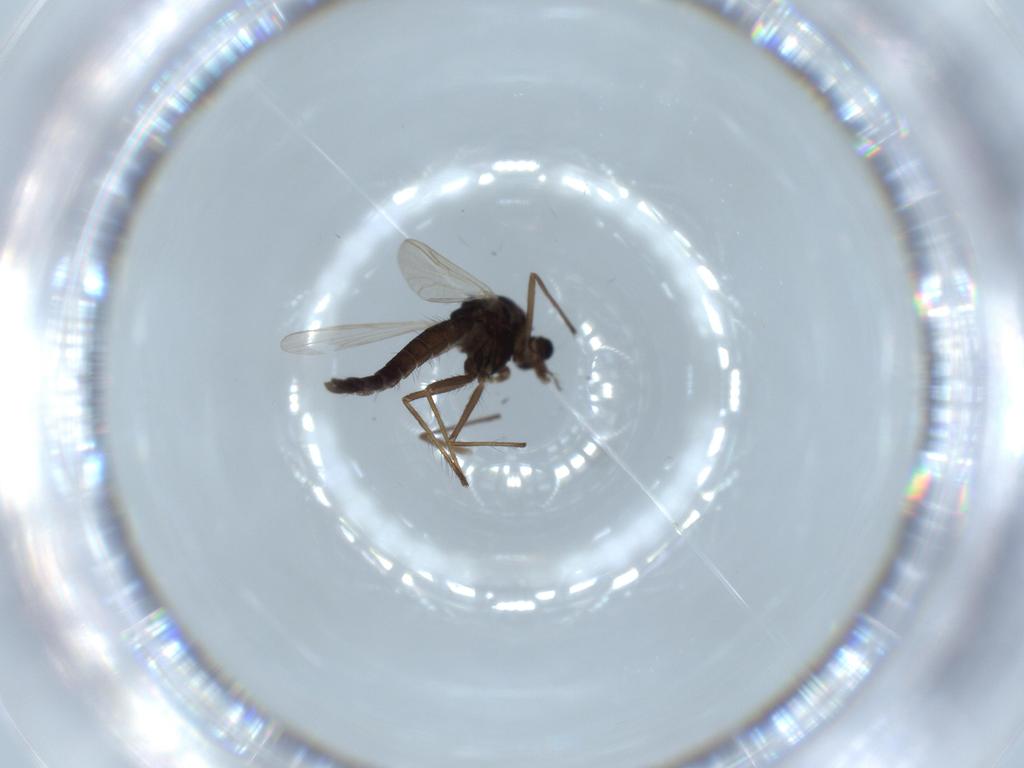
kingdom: Animalia
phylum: Arthropoda
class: Insecta
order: Diptera
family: Chironomidae
